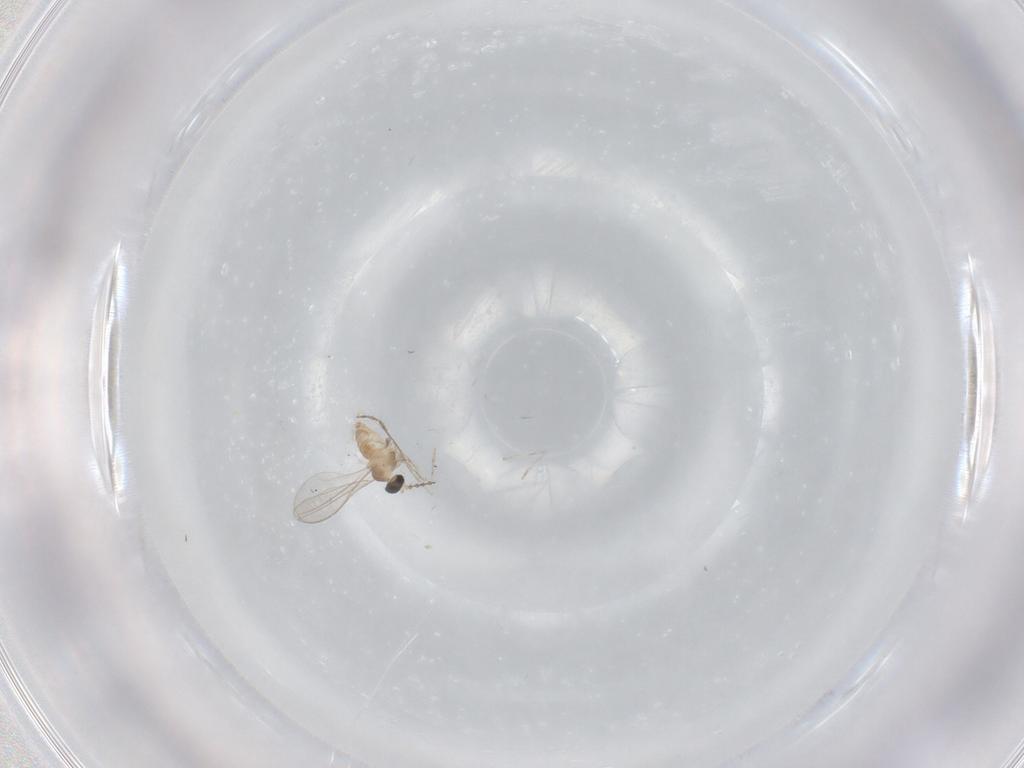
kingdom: Animalia
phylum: Arthropoda
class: Insecta
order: Diptera
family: Cecidomyiidae
